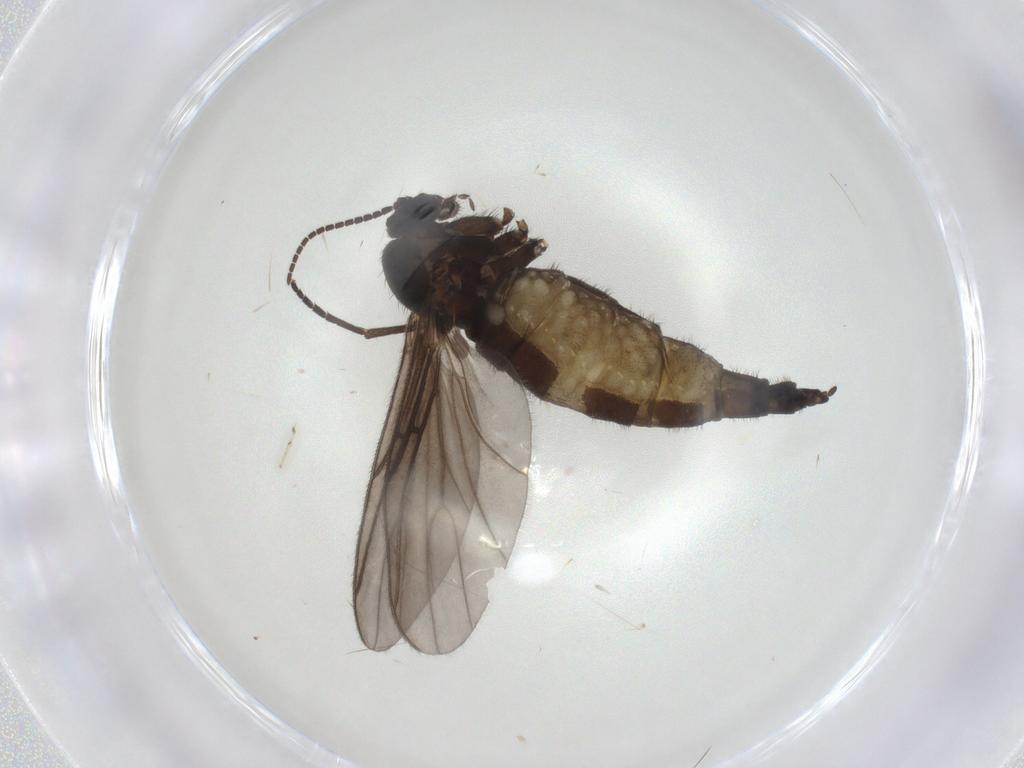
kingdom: Animalia
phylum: Arthropoda
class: Insecta
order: Diptera
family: Sciaridae
